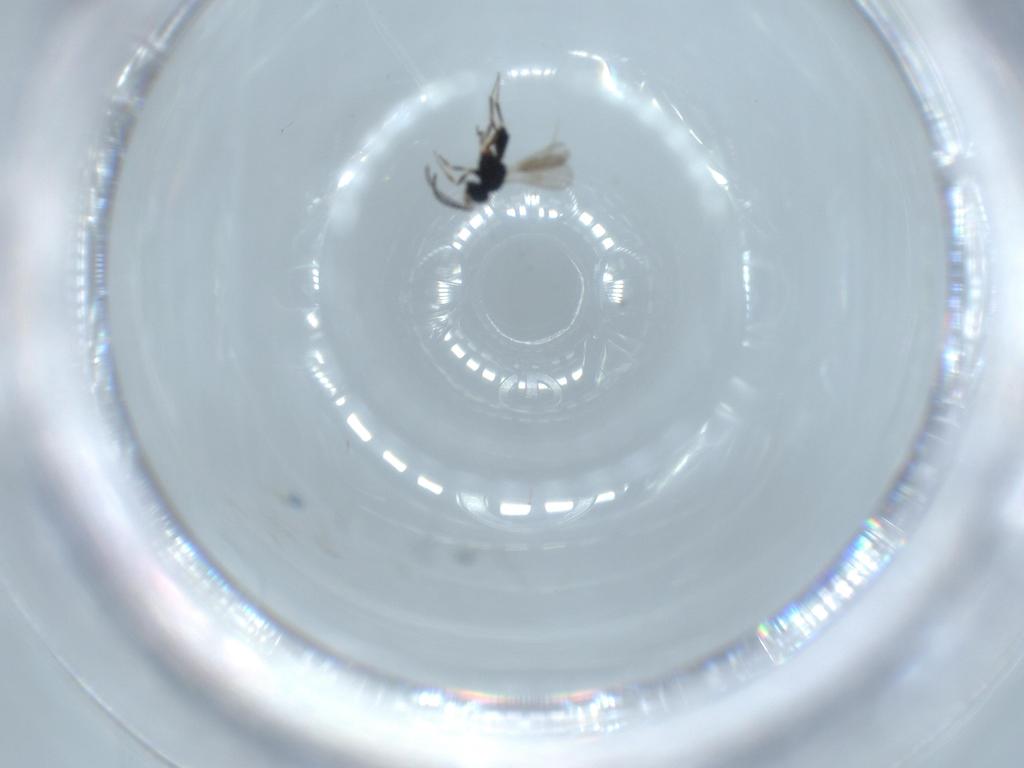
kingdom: Animalia
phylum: Arthropoda
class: Insecta
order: Hymenoptera
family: Scelionidae
